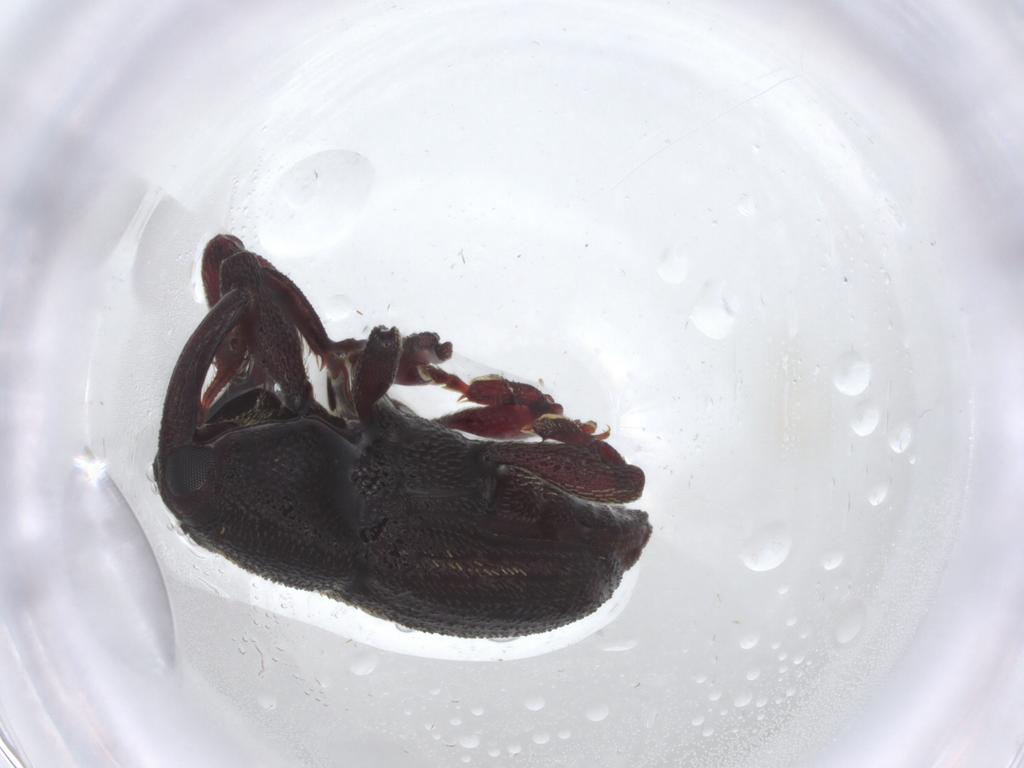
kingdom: Animalia
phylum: Arthropoda
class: Insecta
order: Coleoptera
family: Cerambycidae
